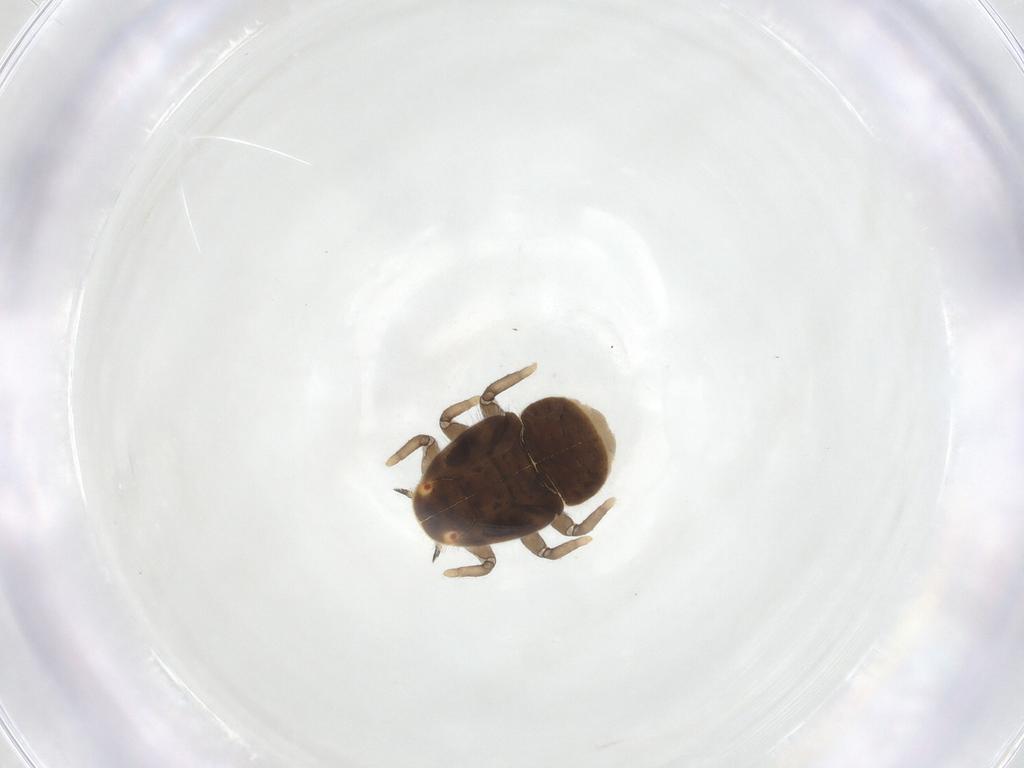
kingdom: Animalia
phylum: Arthropoda
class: Insecta
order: Hemiptera
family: Triozidae
